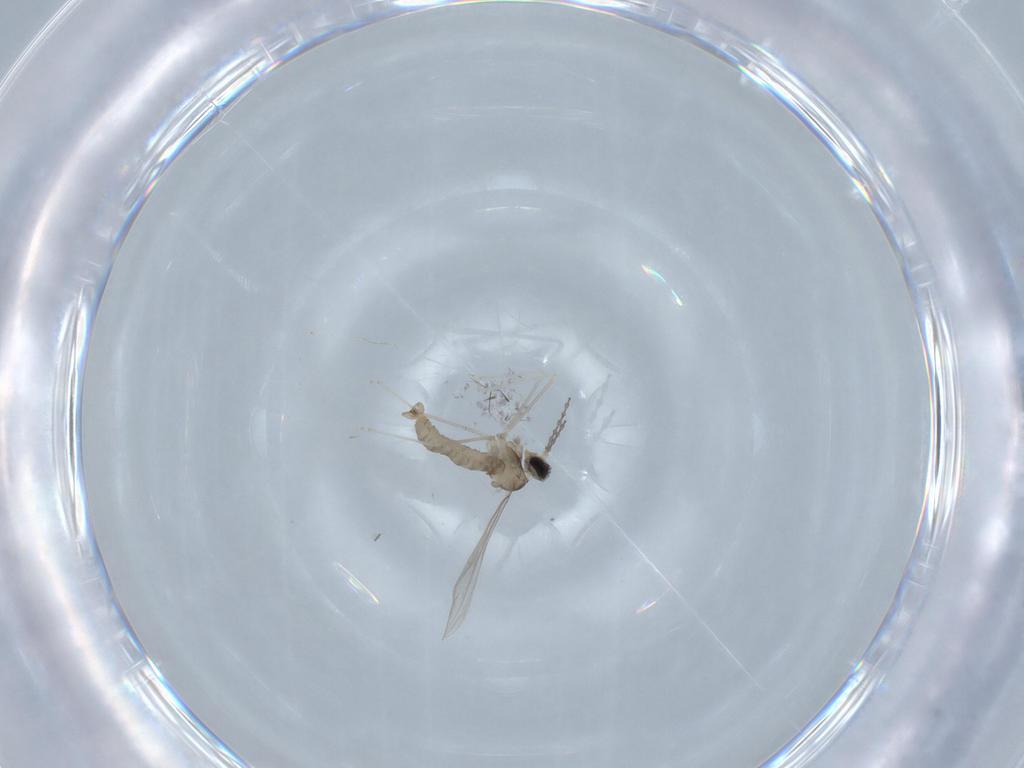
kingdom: Animalia
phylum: Arthropoda
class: Insecta
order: Diptera
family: Cecidomyiidae
